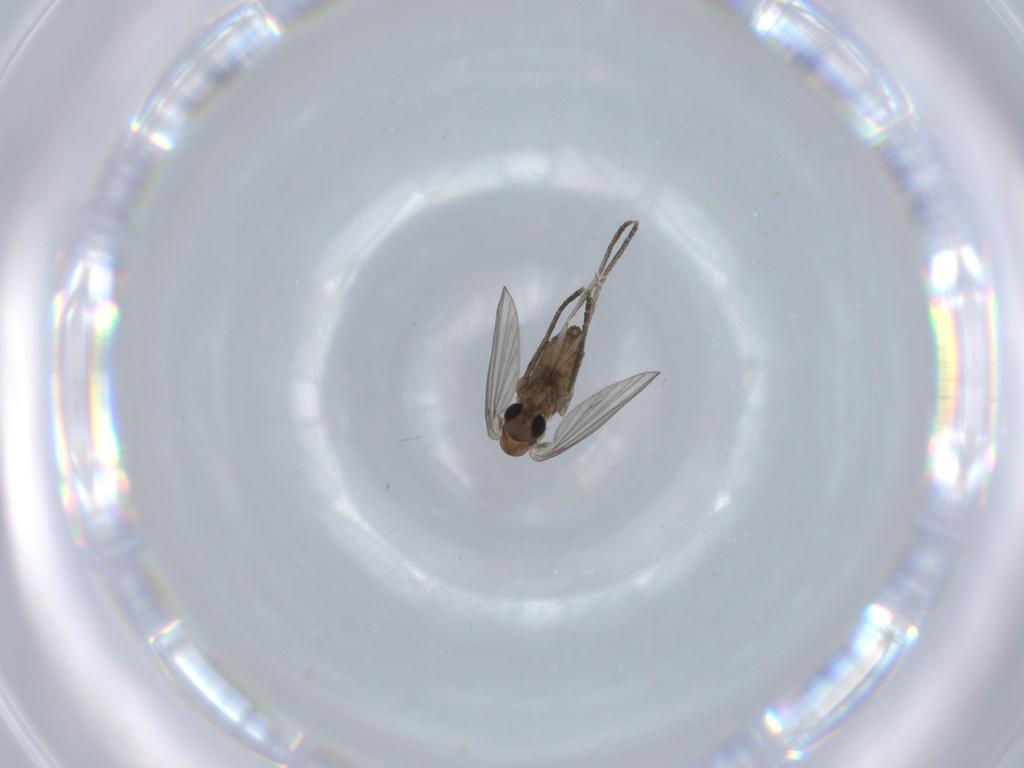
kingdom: Animalia
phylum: Arthropoda
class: Insecta
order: Diptera
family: Psychodidae
